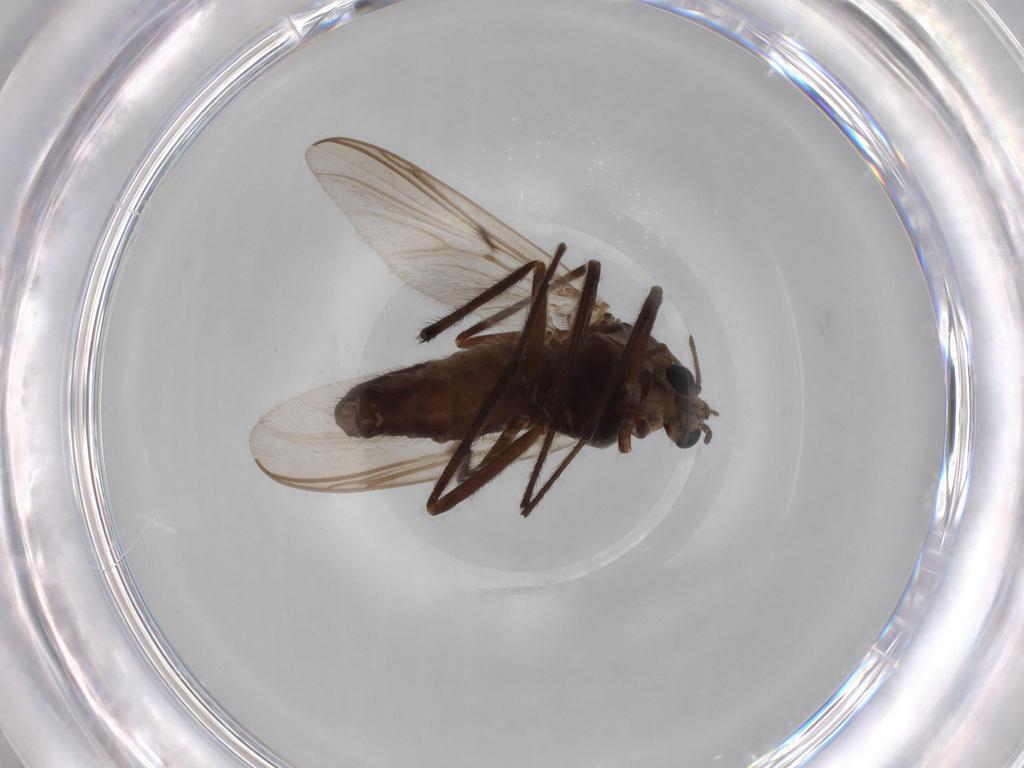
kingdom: Animalia
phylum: Arthropoda
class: Insecta
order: Diptera
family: Chironomidae
